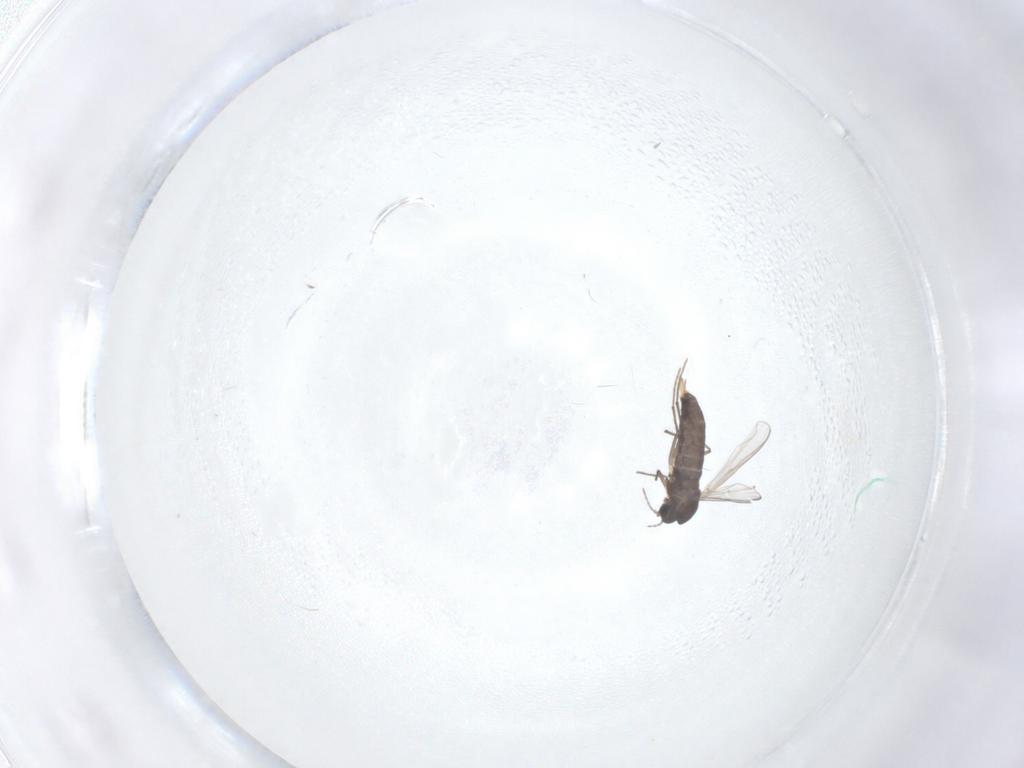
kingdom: Animalia
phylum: Arthropoda
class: Insecta
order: Diptera
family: Chironomidae
